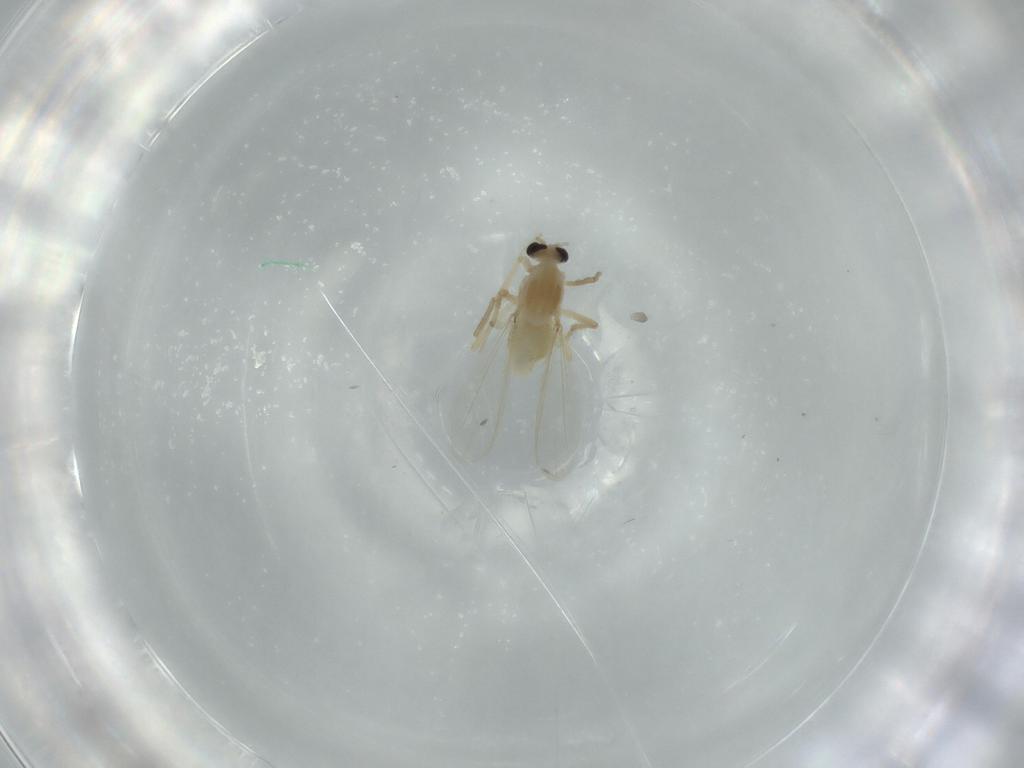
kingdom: Animalia
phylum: Arthropoda
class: Insecta
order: Diptera
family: Chironomidae
